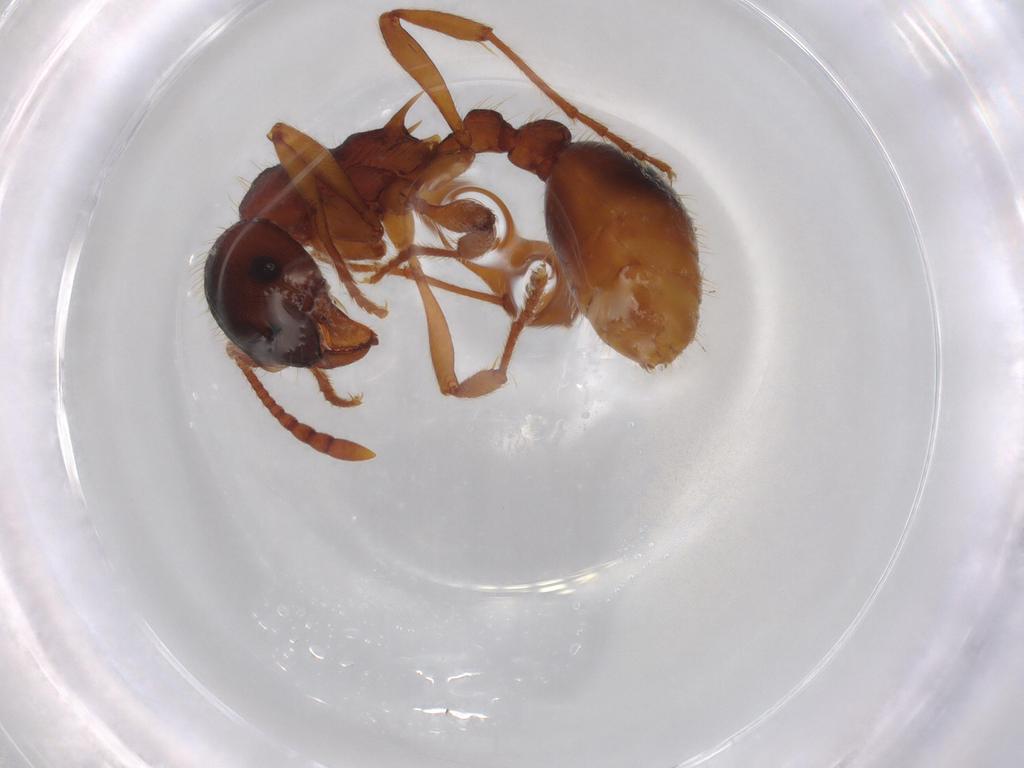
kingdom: Animalia
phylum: Arthropoda
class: Insecta
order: Hymenoptera
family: Formicidae
